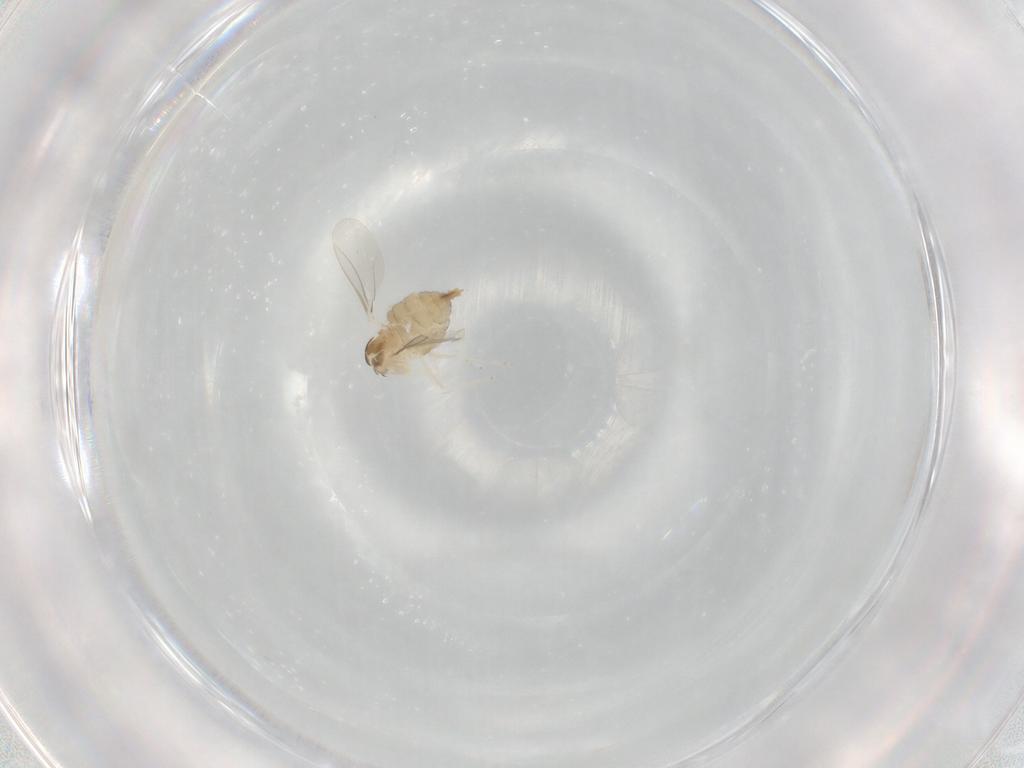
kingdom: Animalia
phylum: Arthropoda
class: Insecta
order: Diptera
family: Cecidomyiidae
